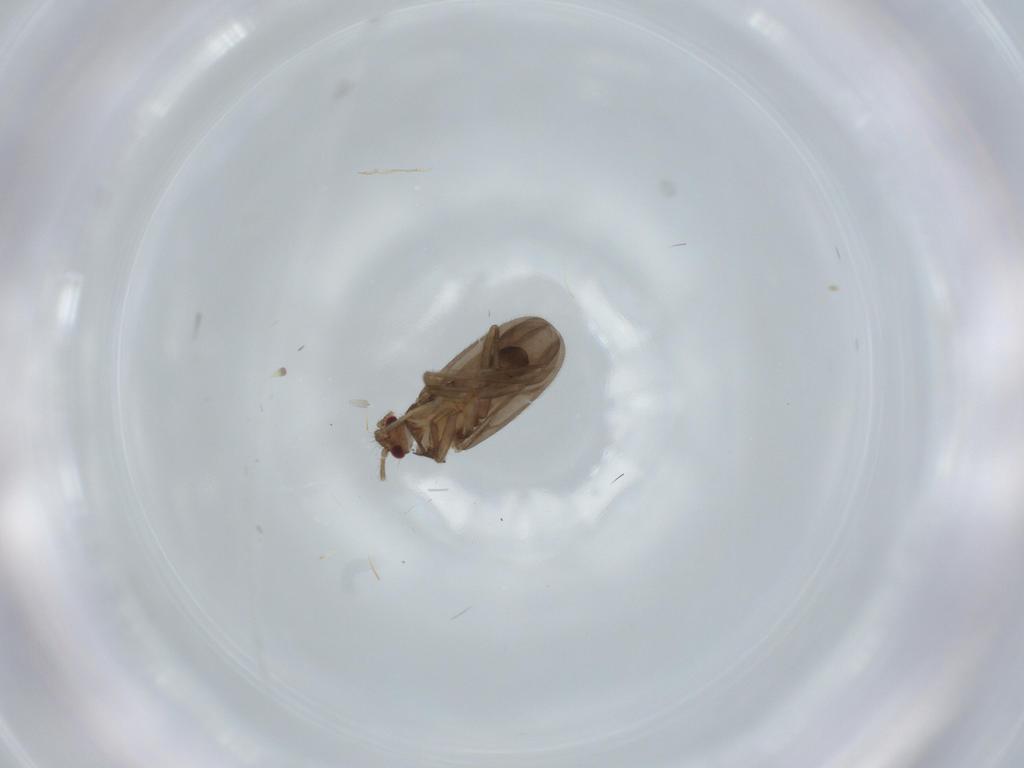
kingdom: Animalia
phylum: Arthropoda
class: Insecta
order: Hemiptera
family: Ceratocombidae
